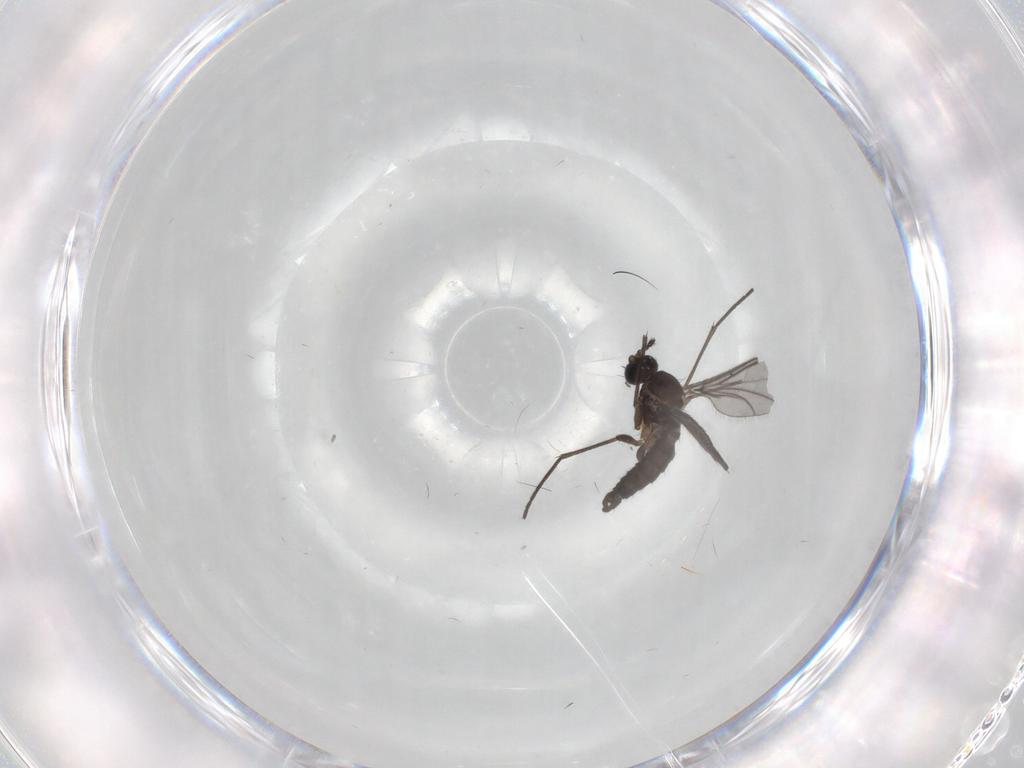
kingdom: Animalia
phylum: Arthropoda
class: Insecta
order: Diptera
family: Sciaridae
